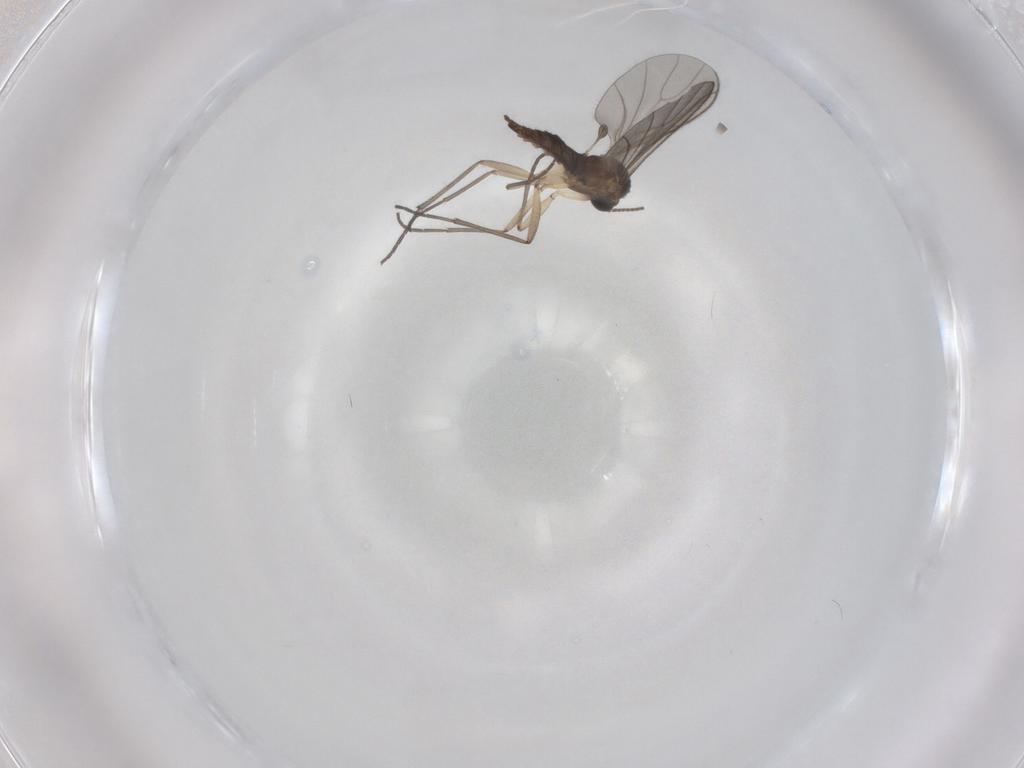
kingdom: Animalia
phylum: Arthropoda
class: Insecta
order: Diptera
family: Sciaridae
